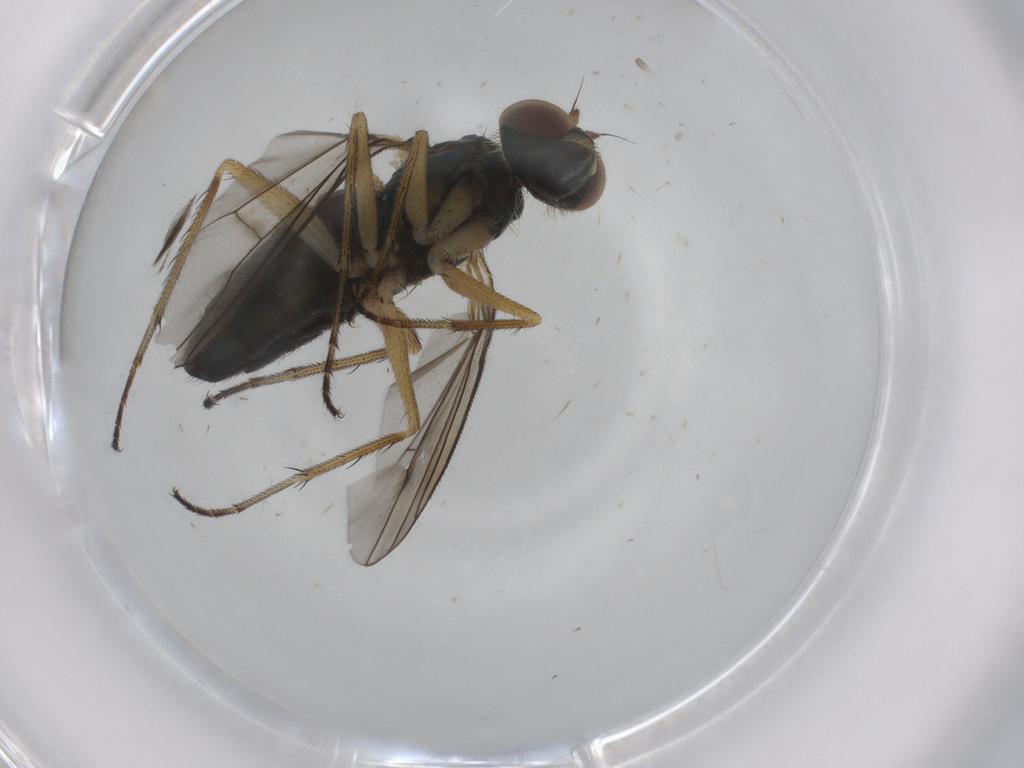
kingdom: Animalia
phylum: Arthropoda
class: Insecta
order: Diptera
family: Dolichopodidae
